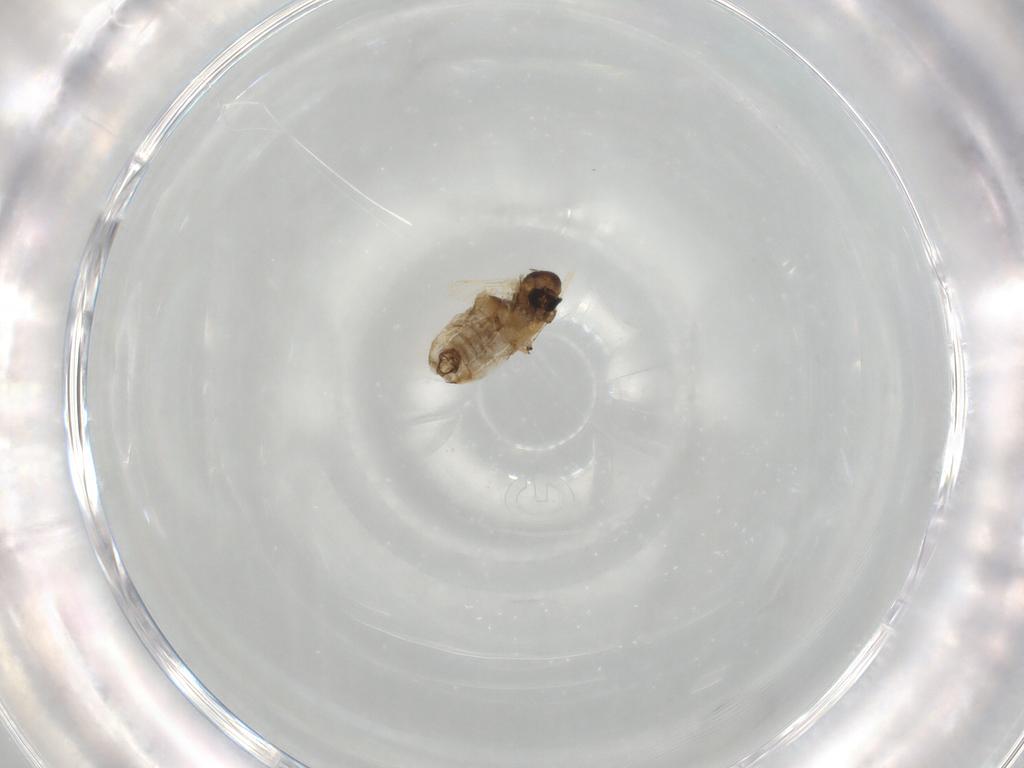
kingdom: Animalia
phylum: Arthropoda
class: Insecta
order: Diptera
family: Chironomidae
